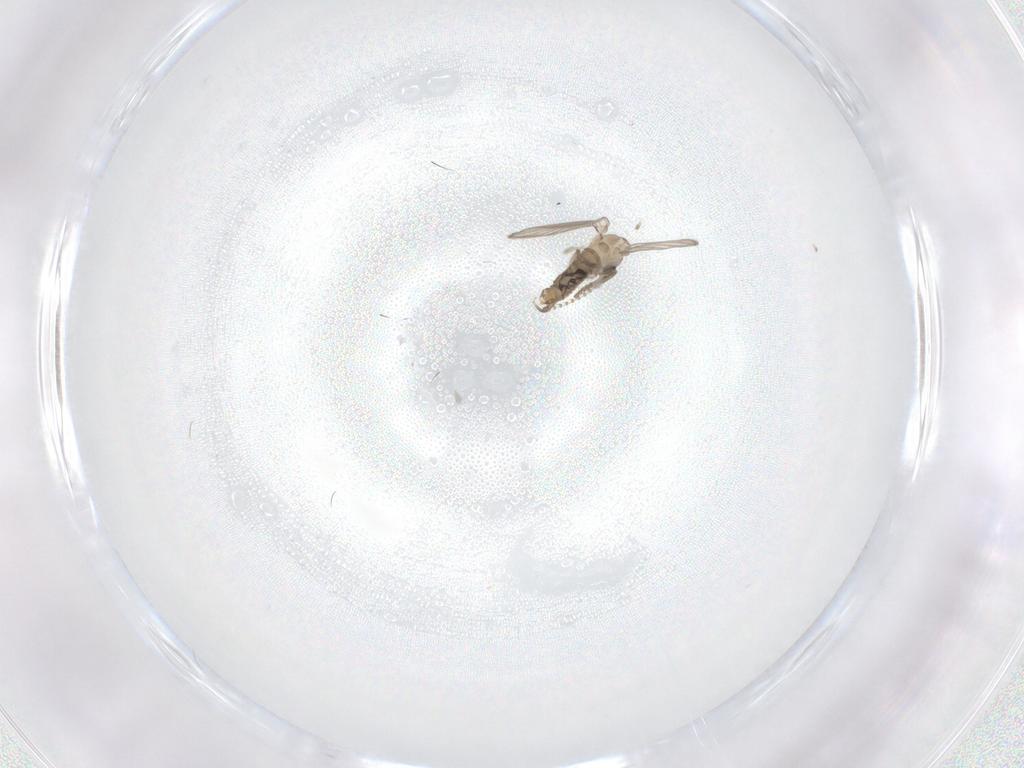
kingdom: Animalia
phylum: Arthropoda
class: Insecta
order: Diptera
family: Psychodidae
